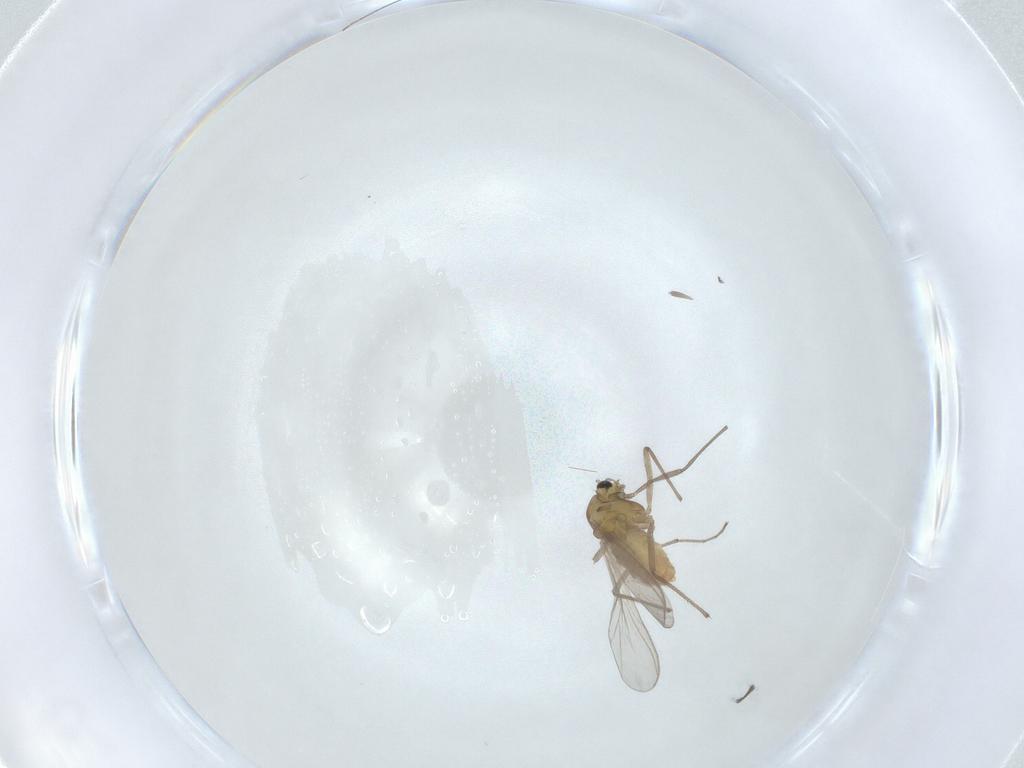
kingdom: Animalia
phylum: Arthropoda
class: Insecta
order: Diptera
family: Chironomidae
